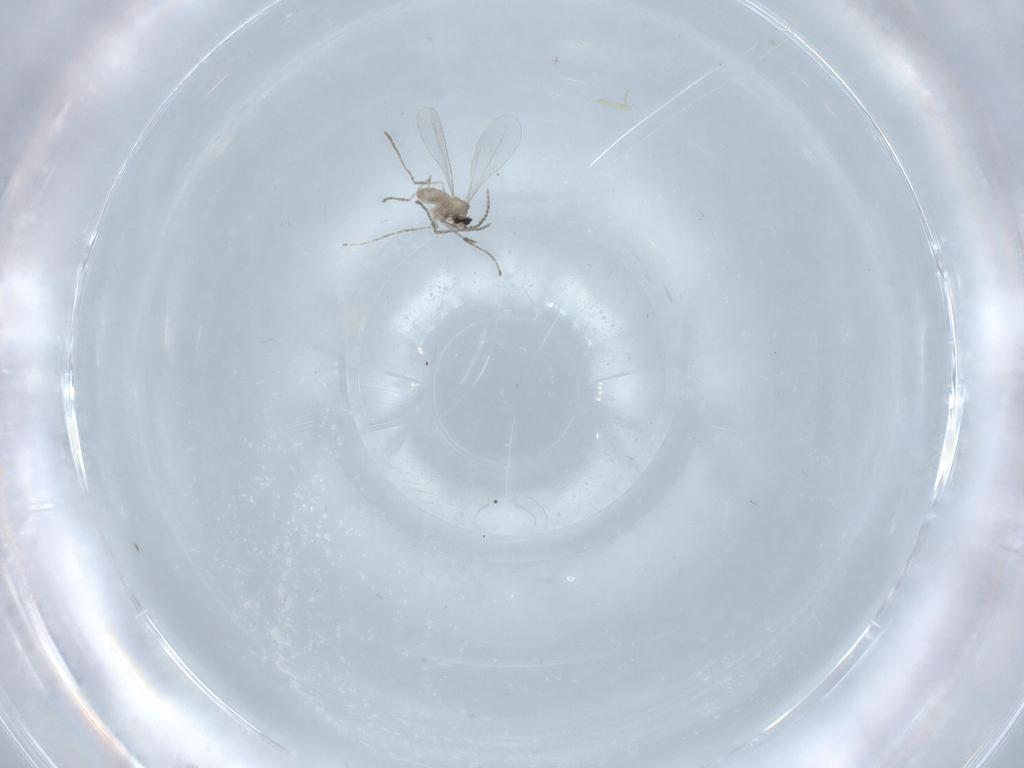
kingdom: Animalia
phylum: Arthropoda
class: Insecta
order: Diptera
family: Cecidomyiidae
